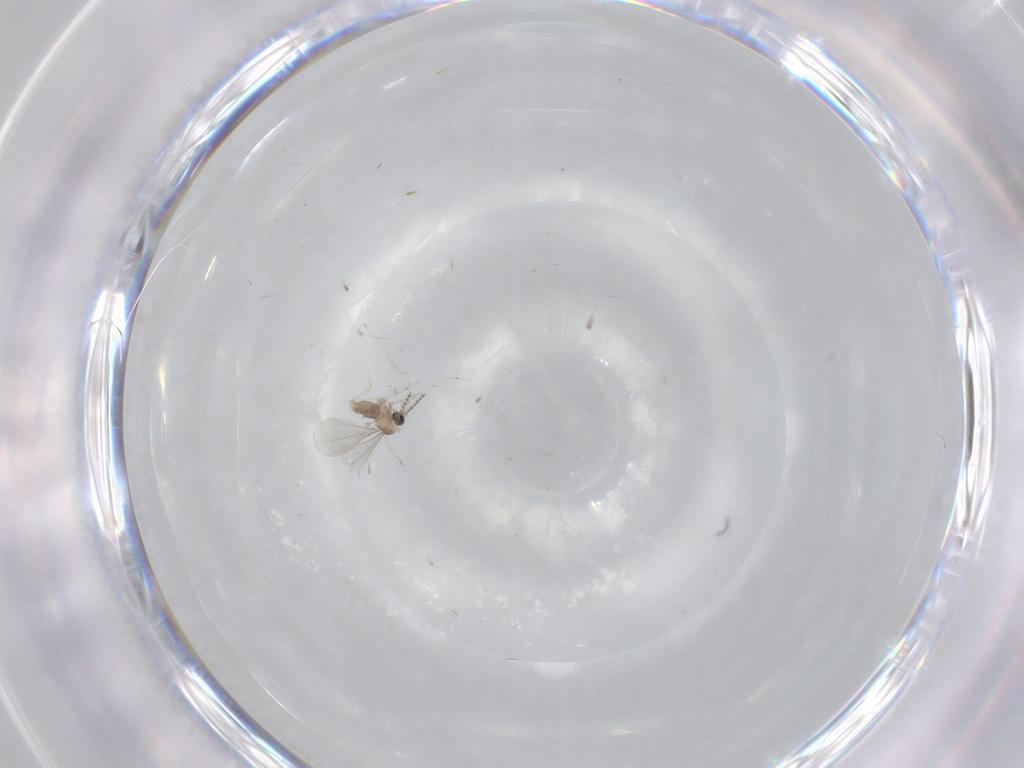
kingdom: Animalia
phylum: Arthropoda
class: Insecta
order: Diptera
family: Cecidomyiidae
